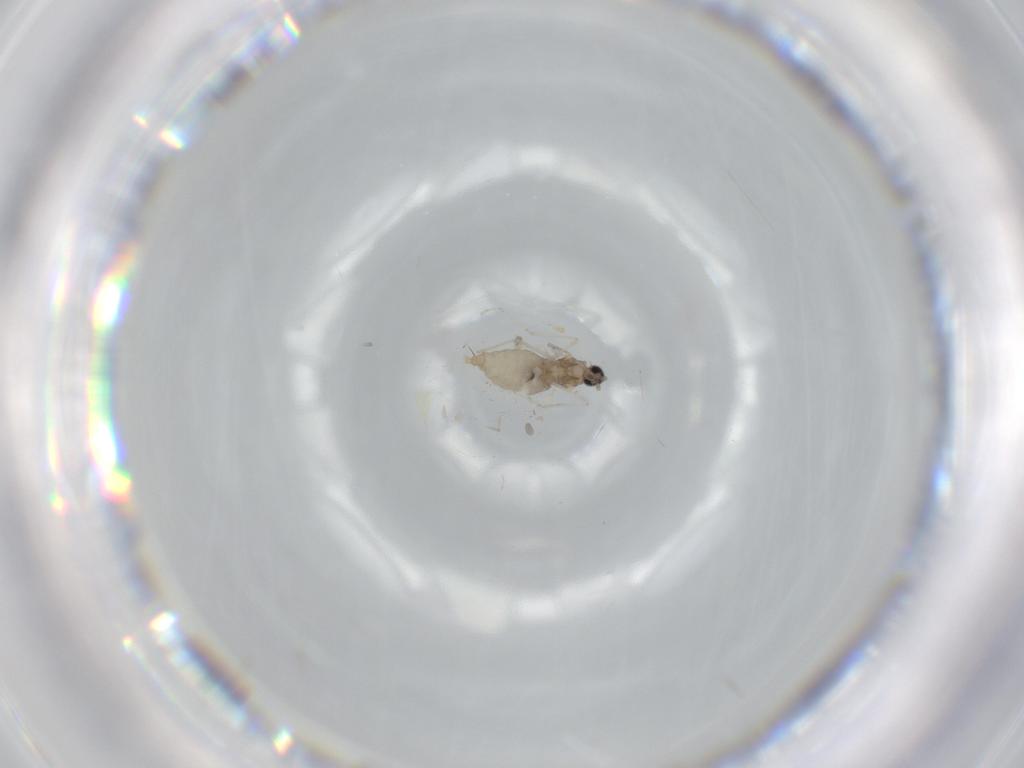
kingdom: Animalia
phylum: Arthropoda
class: Insecta
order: Diptera
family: Cecidomyiidae
